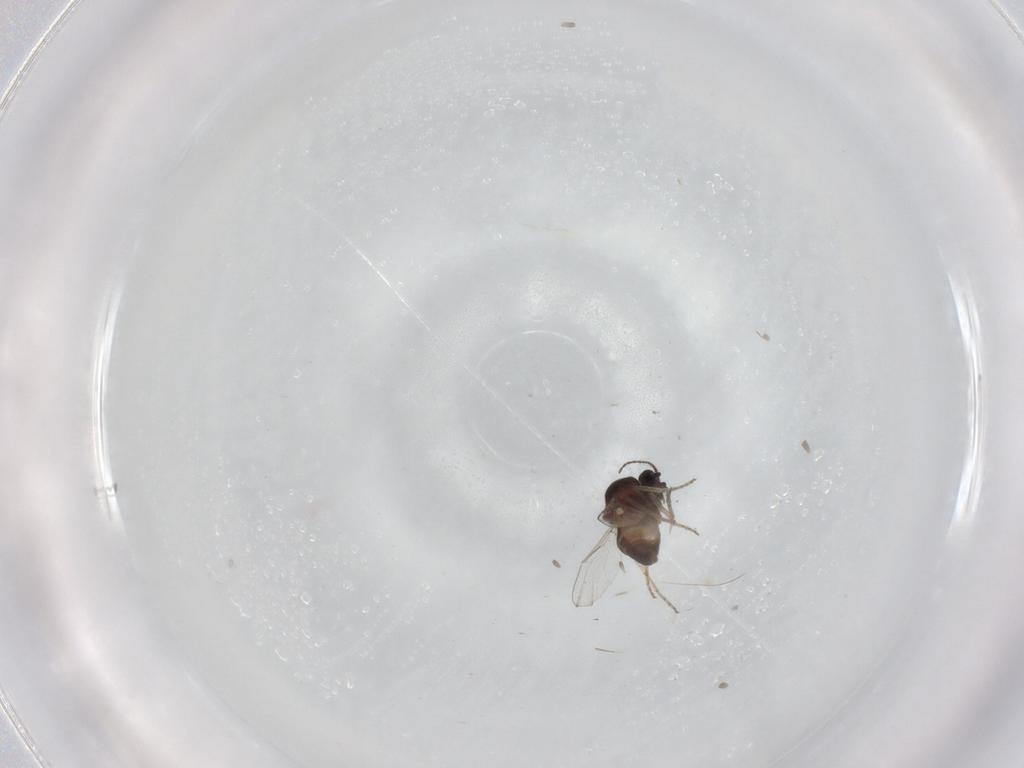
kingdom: Animalia
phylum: Arthropoda
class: Insecta
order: Diptera
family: Ceratopogonidae
